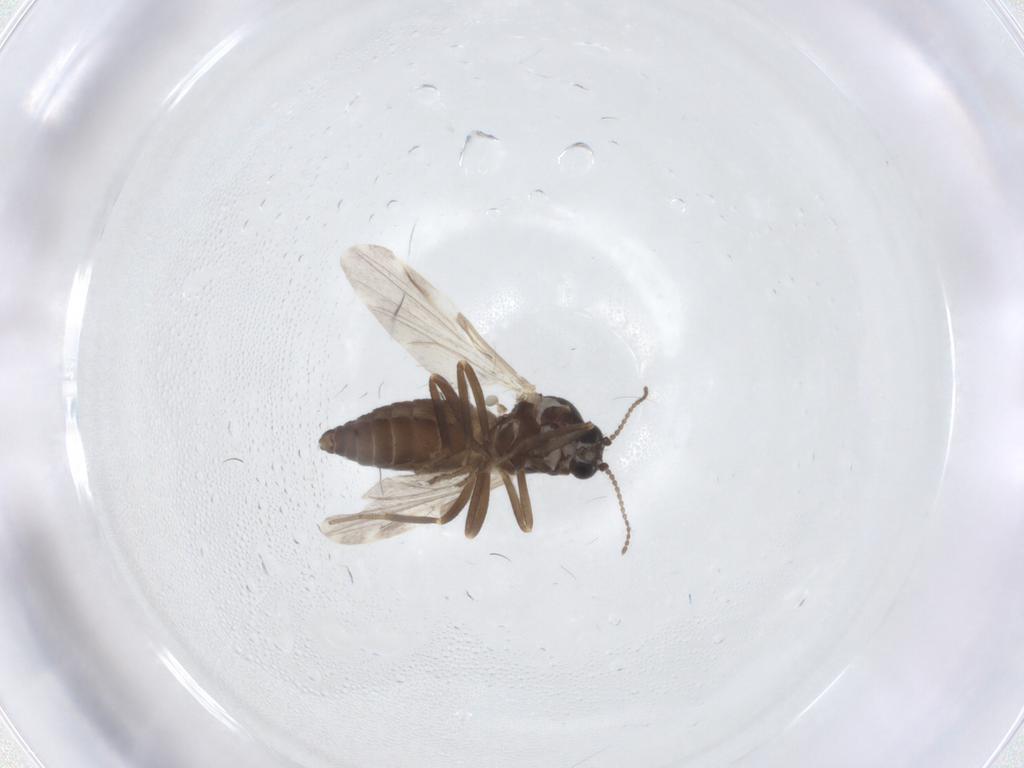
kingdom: Animalia
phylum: Arthropoda
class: Insecta
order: Diptera
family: Ceratopogonidae
